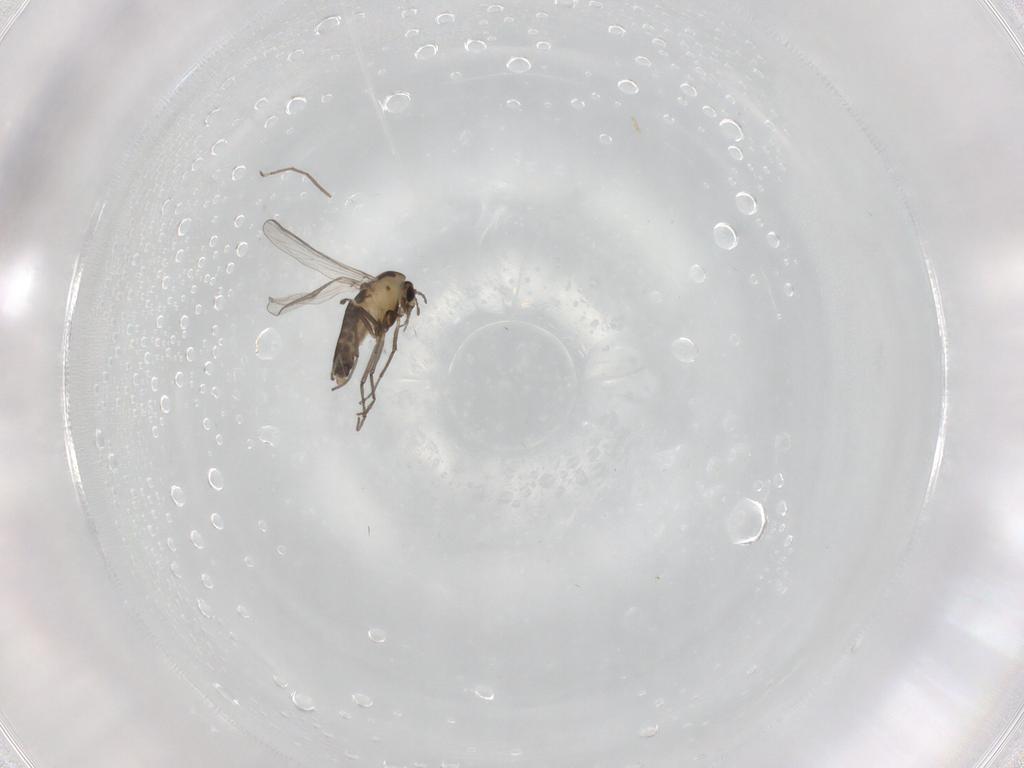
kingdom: Animalia
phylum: Arthropoda
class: Insecta
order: Diptera
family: Chironomidae
